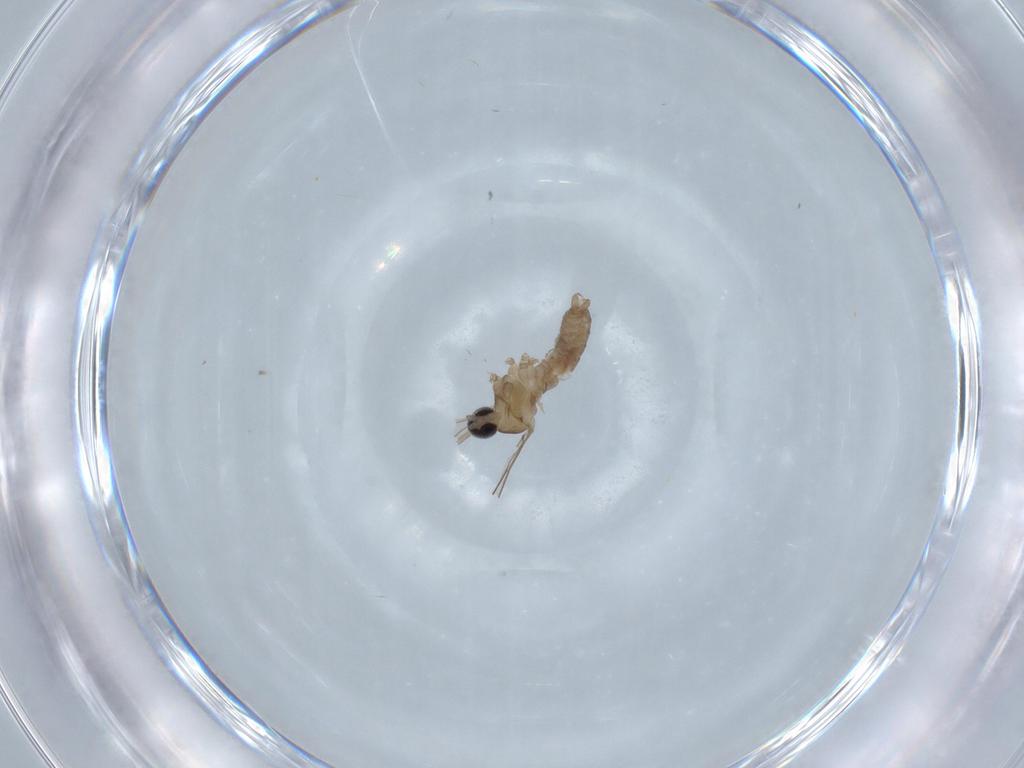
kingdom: Animalia
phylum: Arthropoda
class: Insecta
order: Diptera
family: Cecidomyiidae
